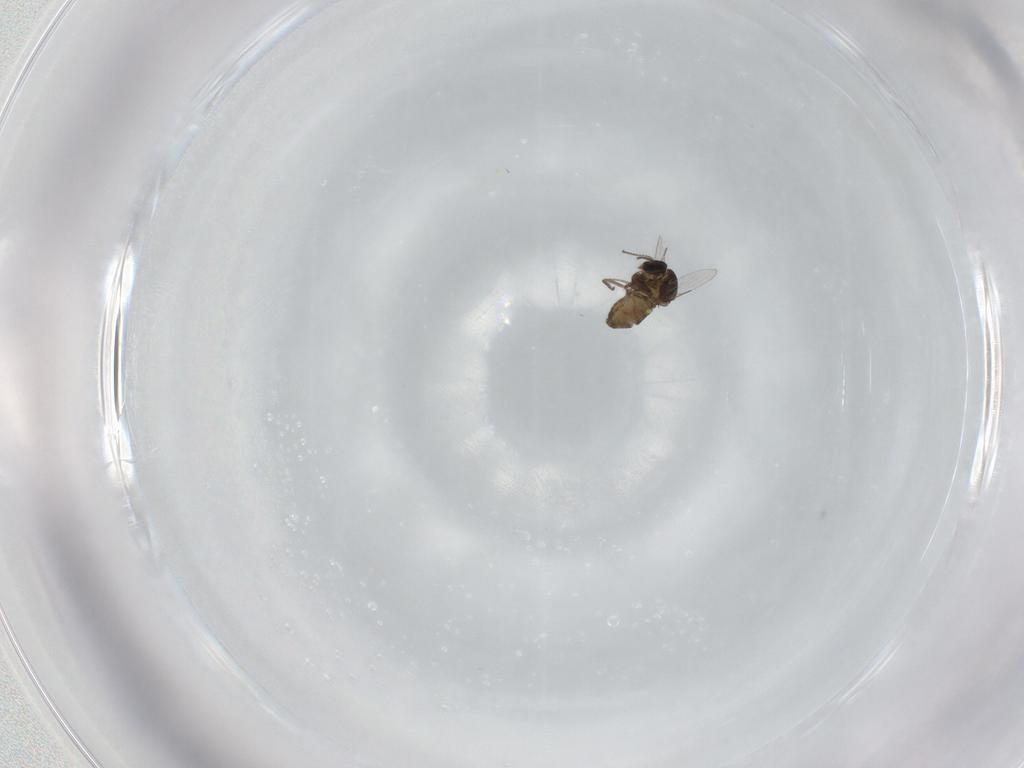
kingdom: Animalia
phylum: Arthropoda
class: Insecta
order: Diptera
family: Ceratopogonidae
